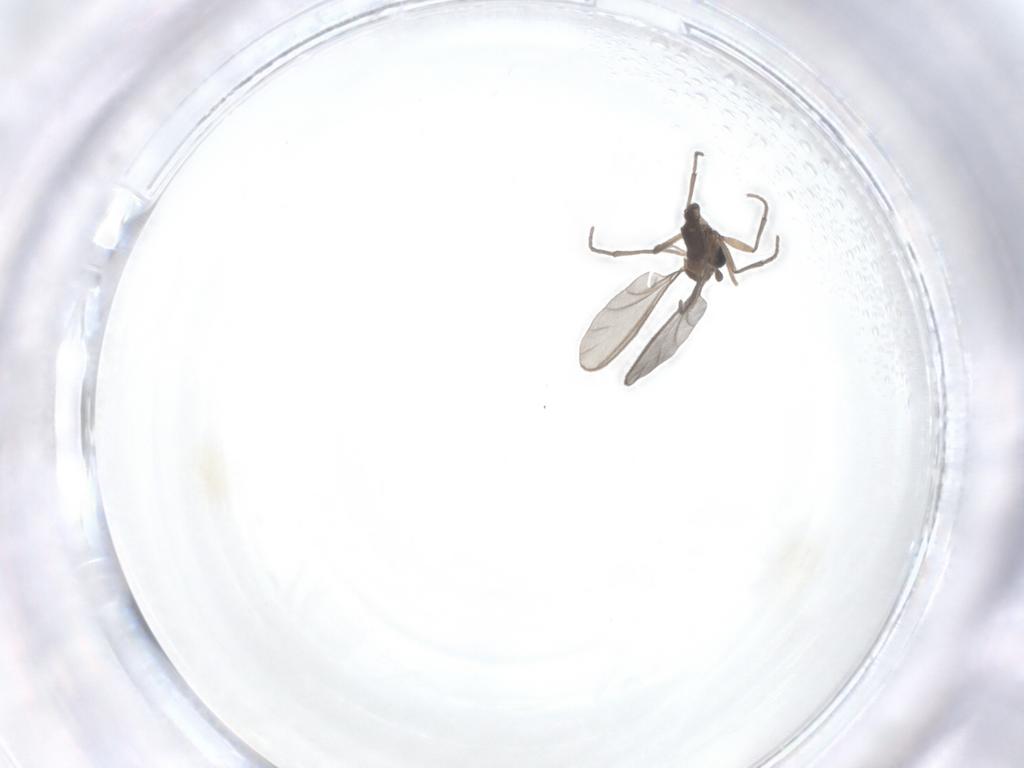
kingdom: Animalia
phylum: Arthropoda
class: Insecta
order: Diptera
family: Sciaridae
